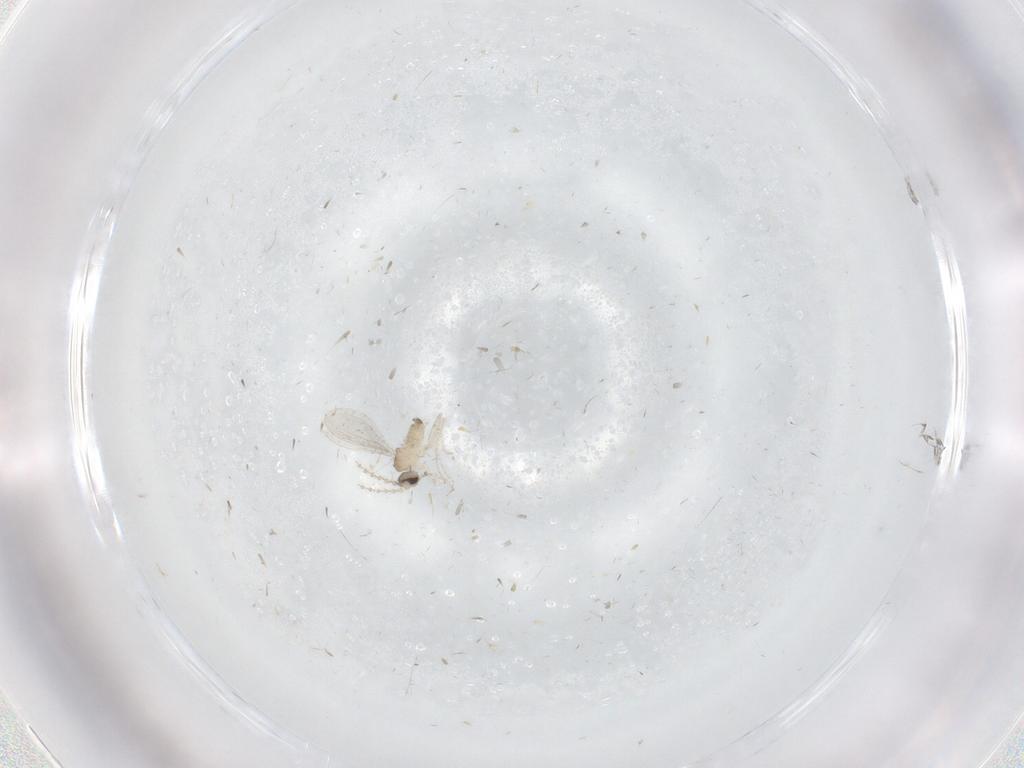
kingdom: Animalia
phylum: Arthropoda
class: Insecta
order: Diptera
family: Cecidomyiidae
